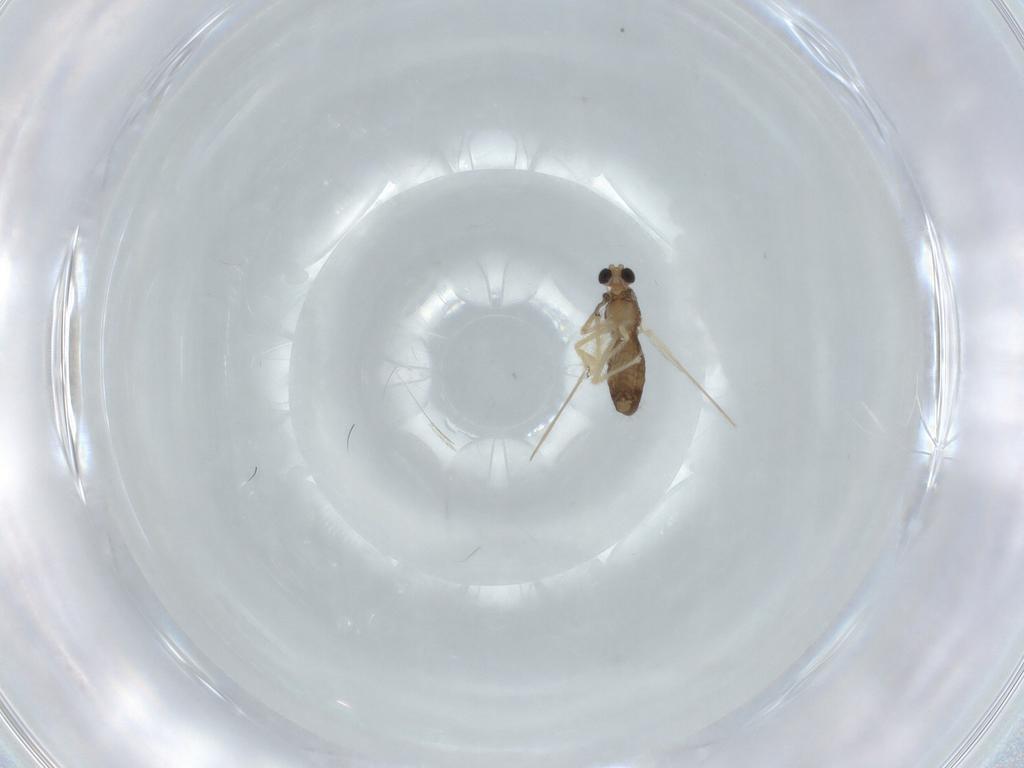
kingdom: Animalia
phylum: Arthropoda
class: Insecta
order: Diptera
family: Chironomidae
